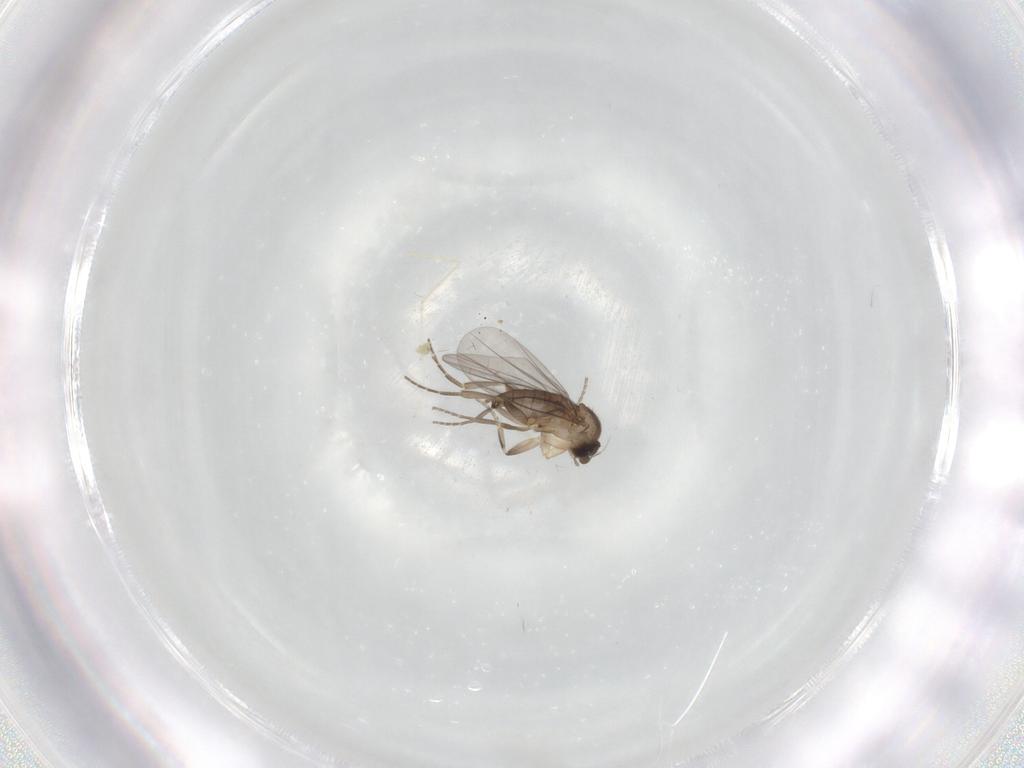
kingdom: Animalia
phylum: Arthropoda
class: Insecta
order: Diptera
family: Phoridae
